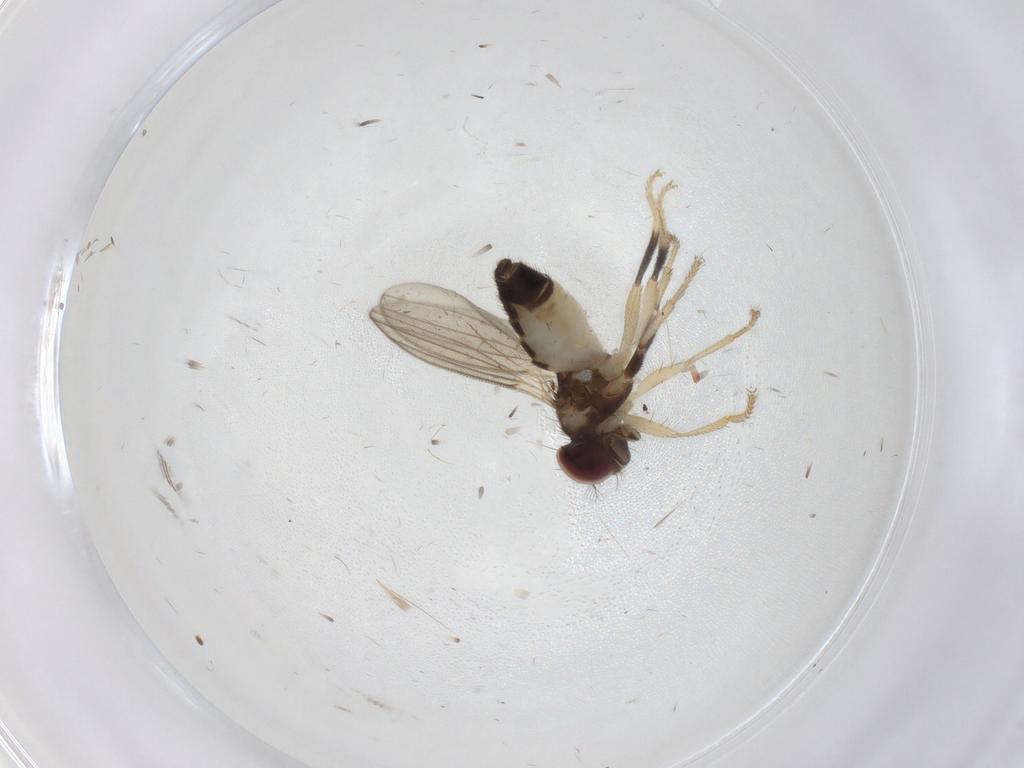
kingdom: Animalia
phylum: Arthropoda
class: Insecta
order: Diptera
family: Periscelididae
